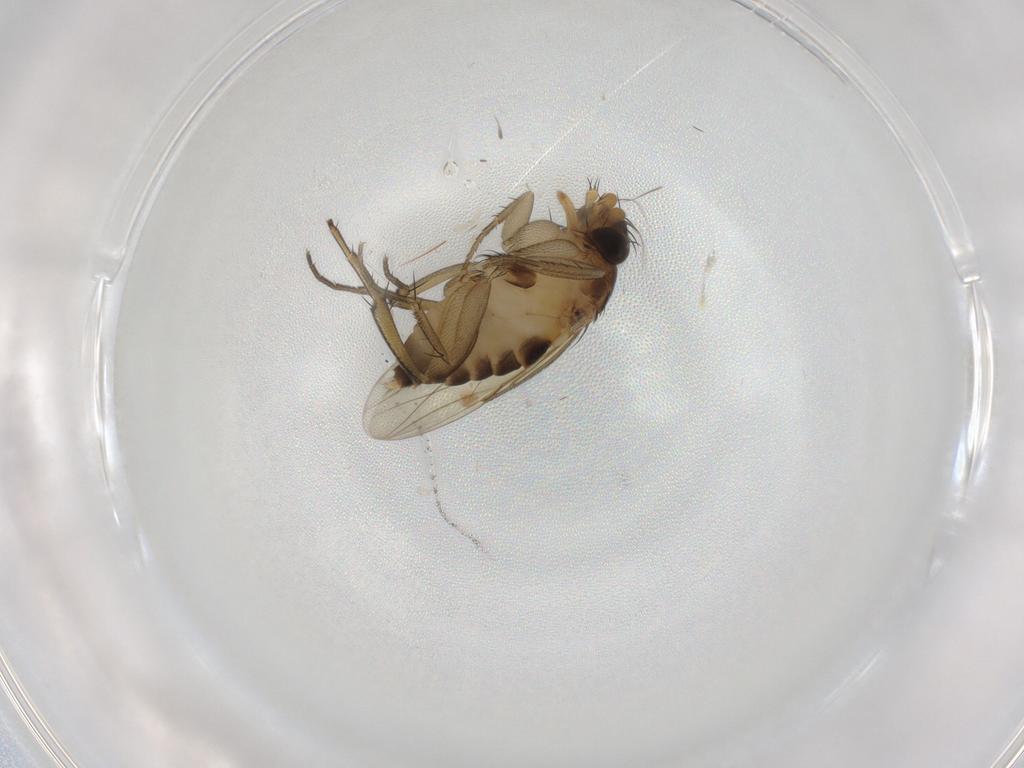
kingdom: Animalia
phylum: Arthropoda
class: Insecta
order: Diptera
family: Phoridae
